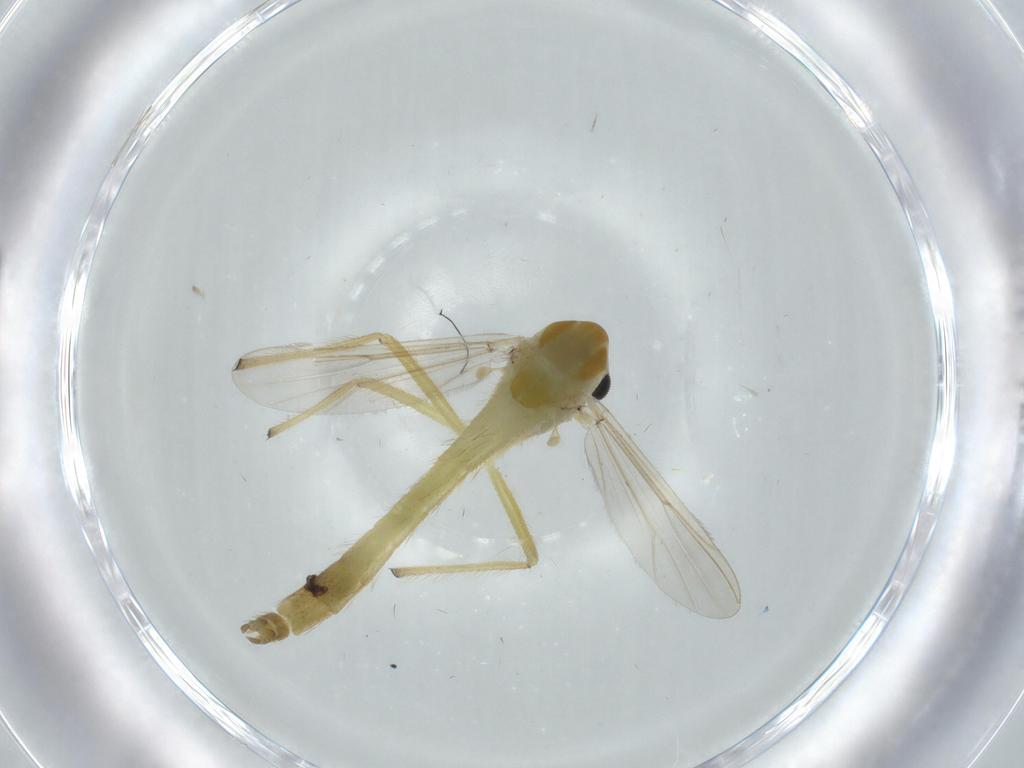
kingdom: Animalia
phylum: Arthropoda
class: Insecta
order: Diptera
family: Chironomidae
